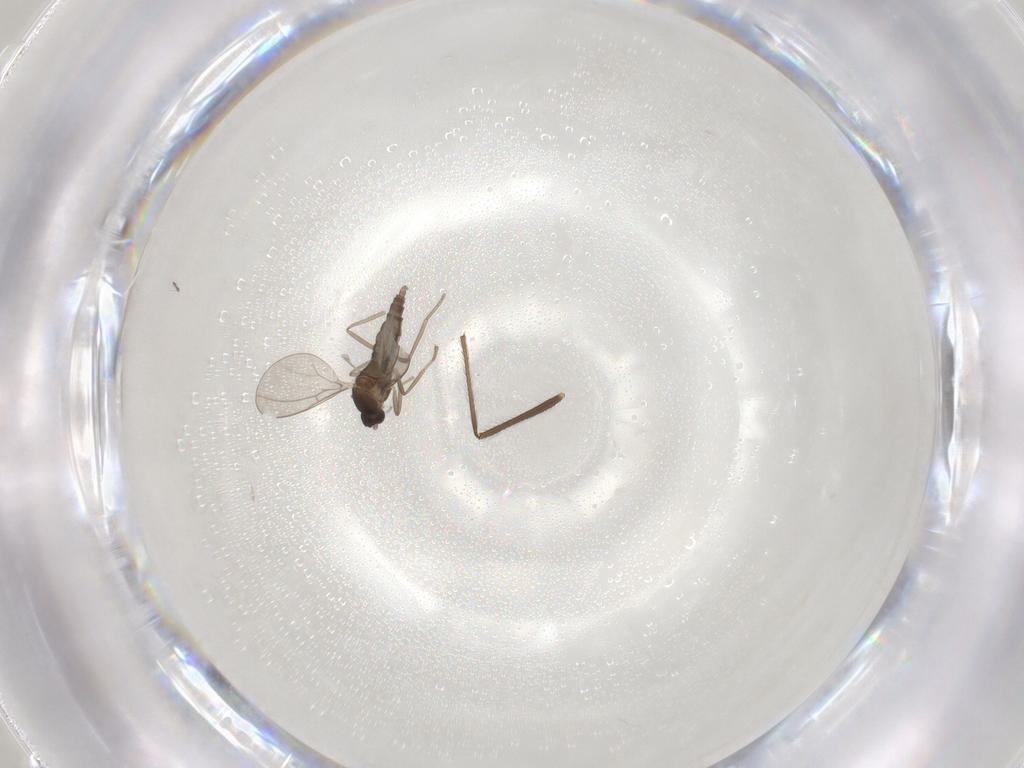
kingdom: Animalia
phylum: Arthropoda
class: Insecta
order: Diptera
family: Cecidomyiidae
